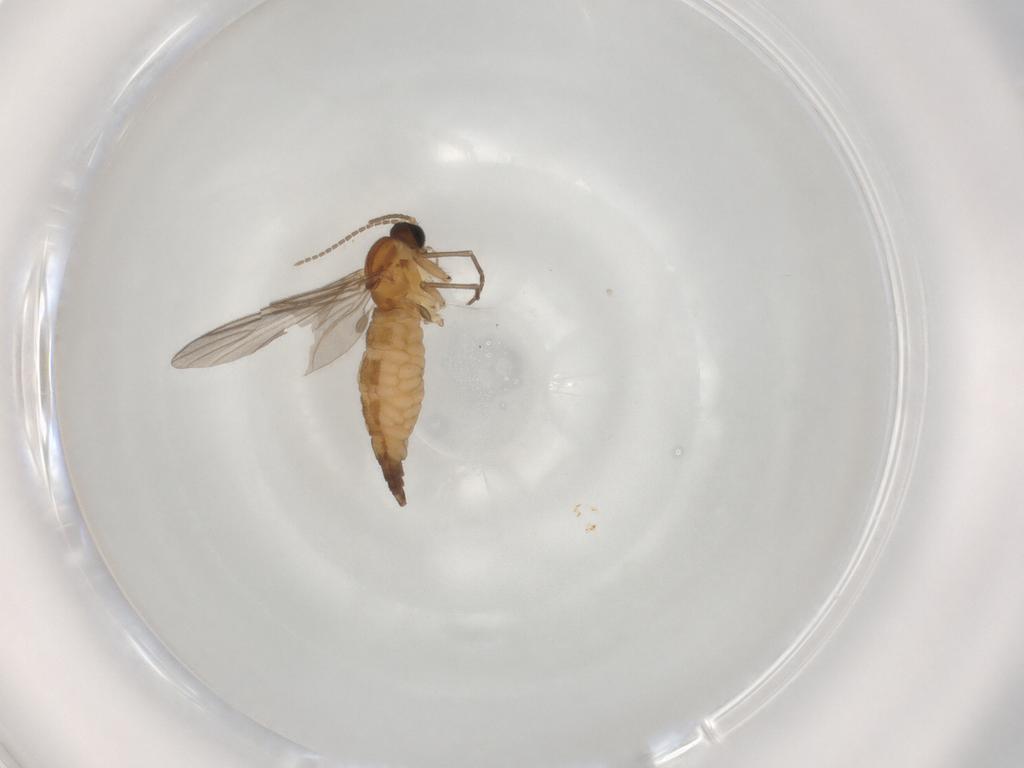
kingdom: Animalia
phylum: Arthropoda
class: Insecta
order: Diptera
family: Sciaridae
